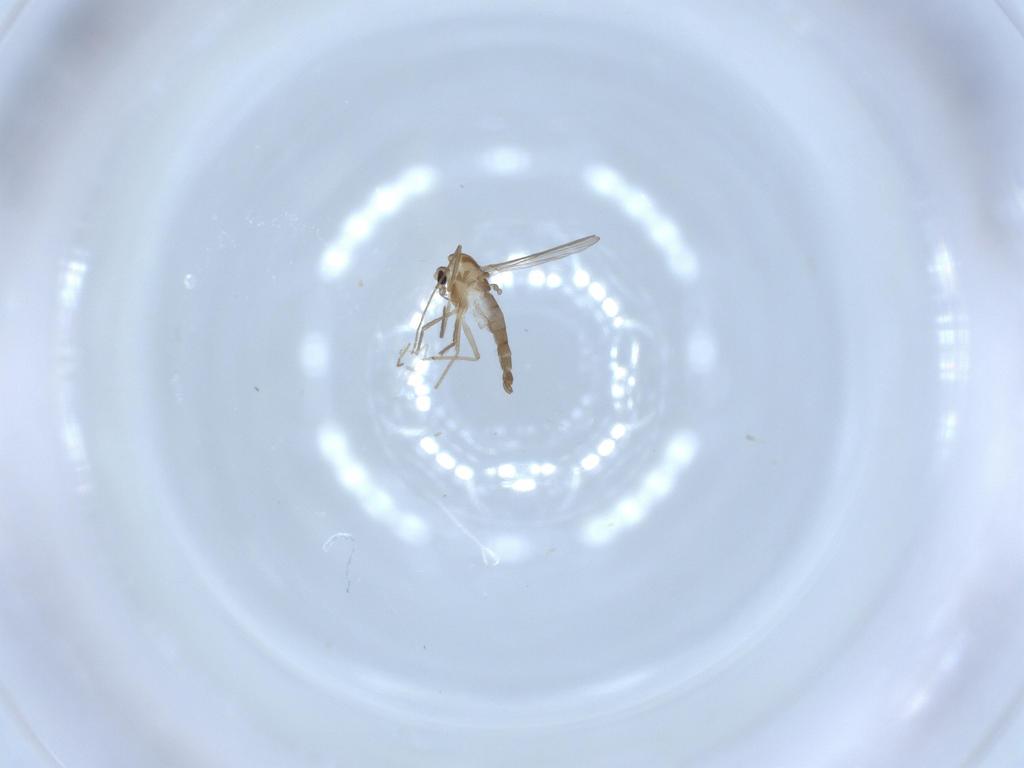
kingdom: Animalia
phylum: Arthropoda
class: Insecta
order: Diptera
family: Chironomidae
